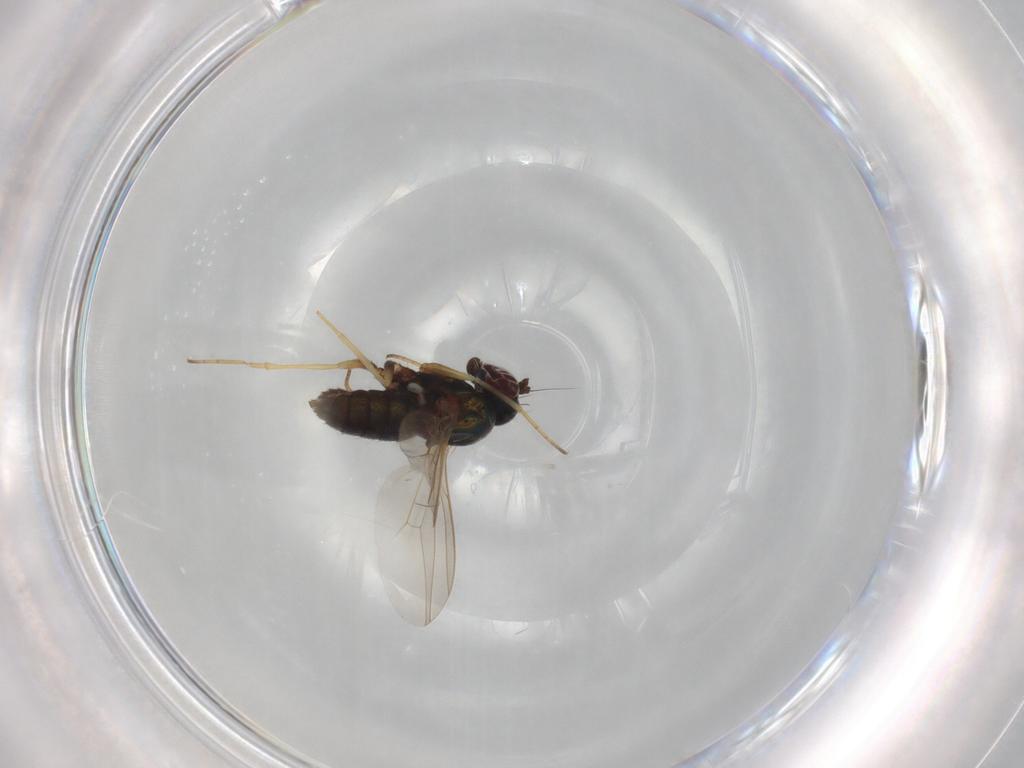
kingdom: Animalia
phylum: Arthropoda
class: Insecta
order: Diptera
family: Dolichopodidae
